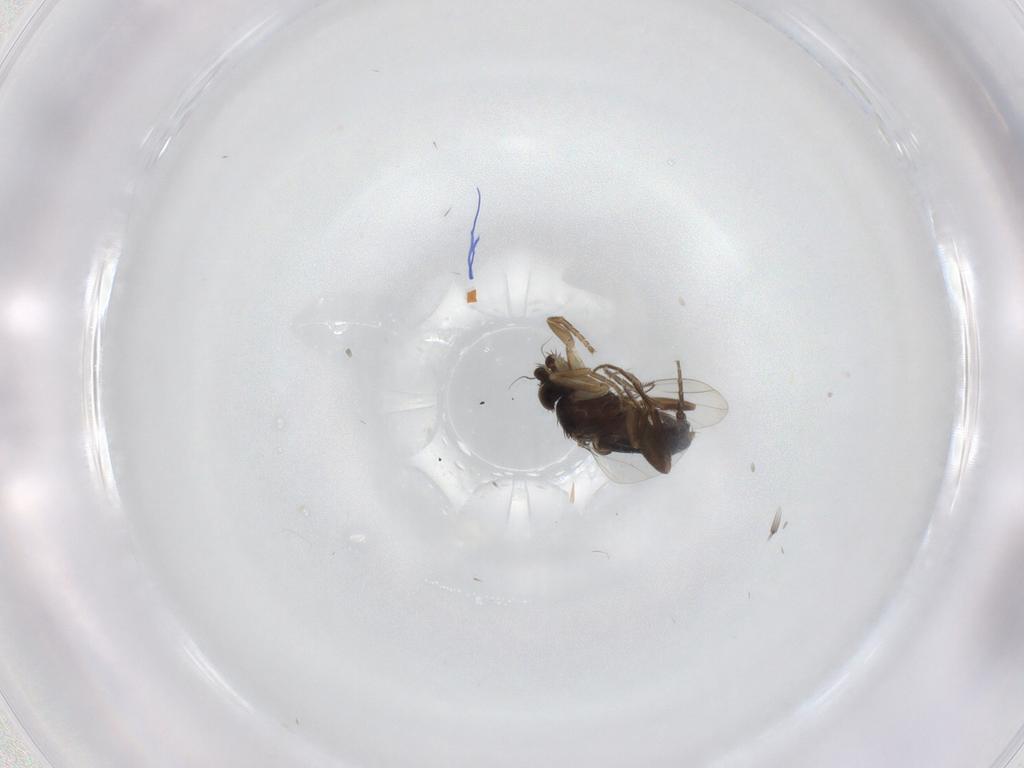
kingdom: Animalia
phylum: Arthropoda
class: Insecta
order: Diptera
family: Phoridae
